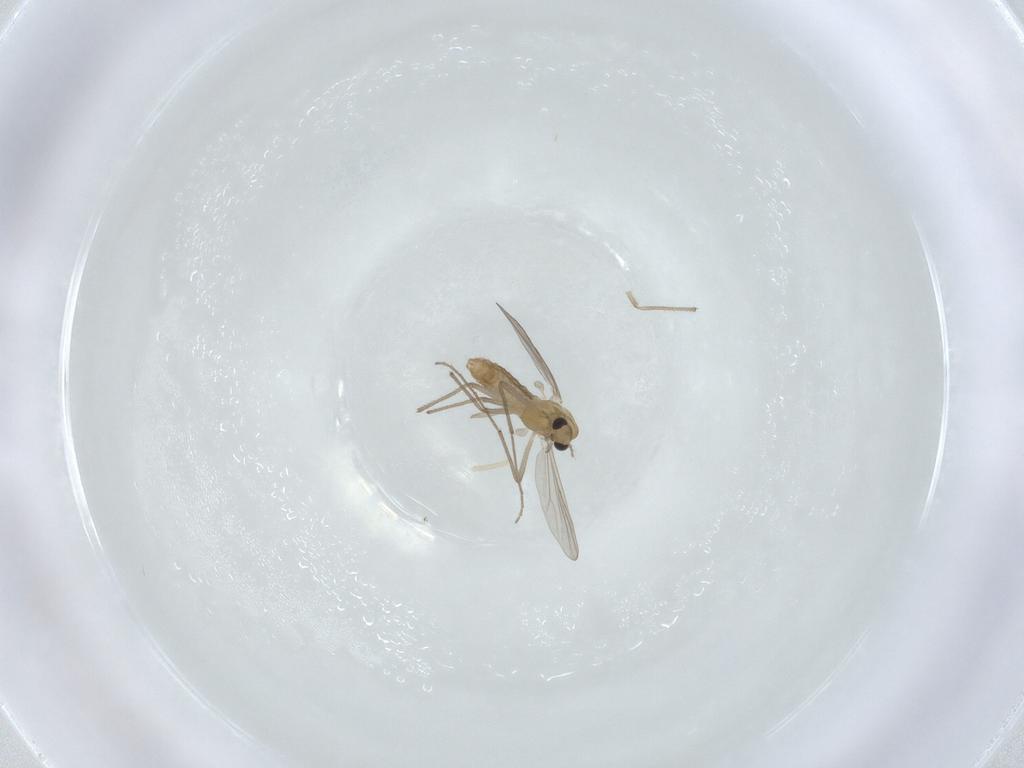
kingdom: Animalia
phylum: Arthropoda
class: Insecta
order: Diptera
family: Chironomidae
